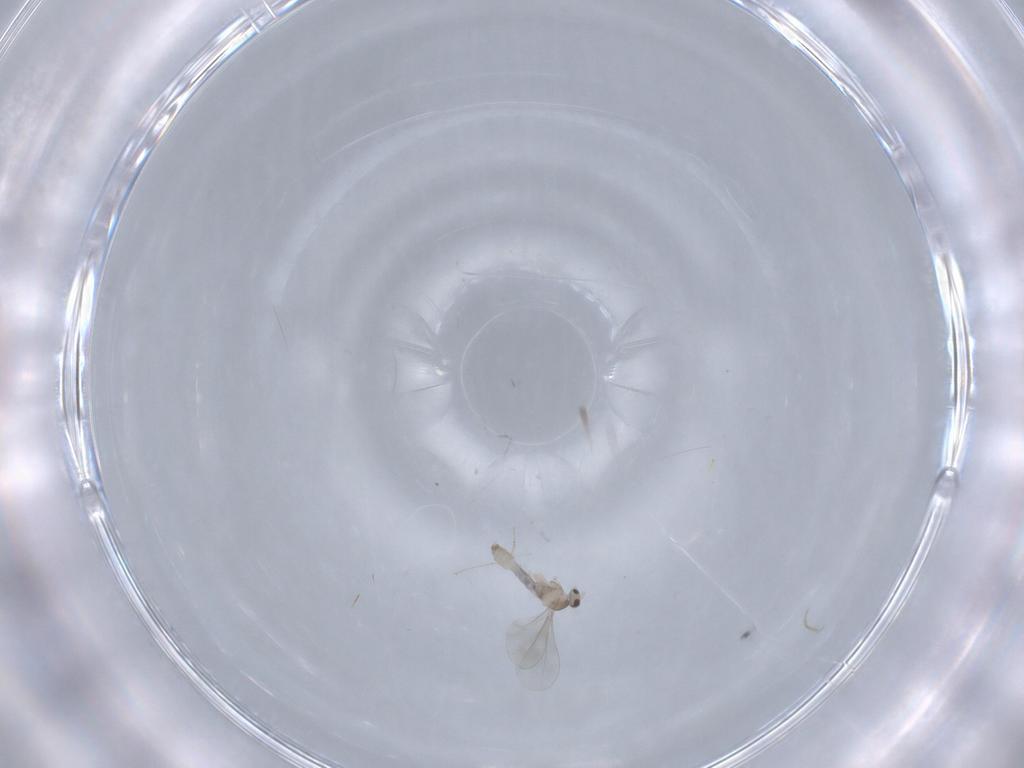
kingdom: Animalia
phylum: Arthropoda
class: Insecta
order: Diptera
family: Cecidomyiidae
